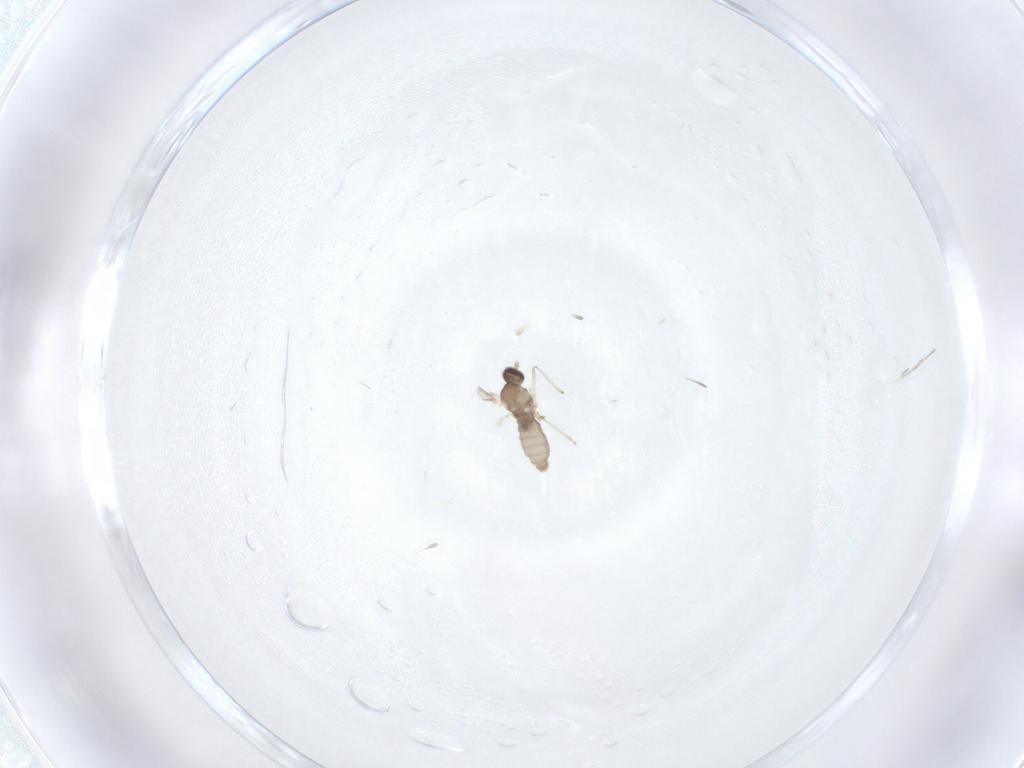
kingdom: Animalia
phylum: Arthropoda
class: Insecta
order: Diptera
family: Cecidomyiidae
